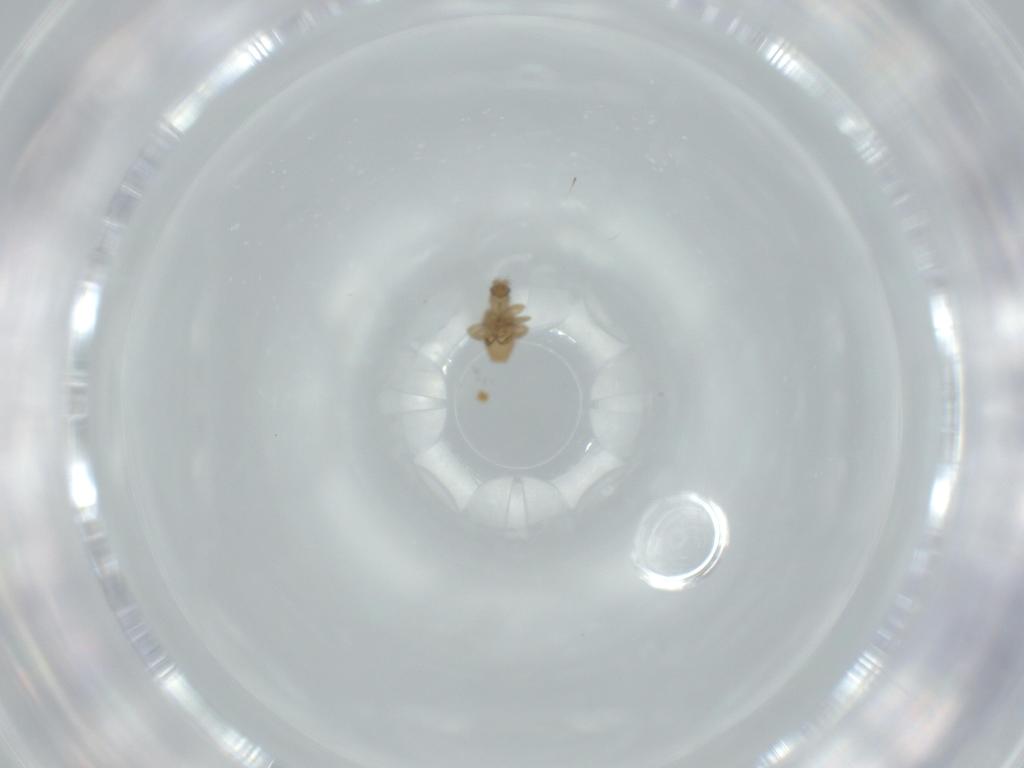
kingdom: Animalia
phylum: Arthropoda
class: Insecta
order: Diptera
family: Phoridae
